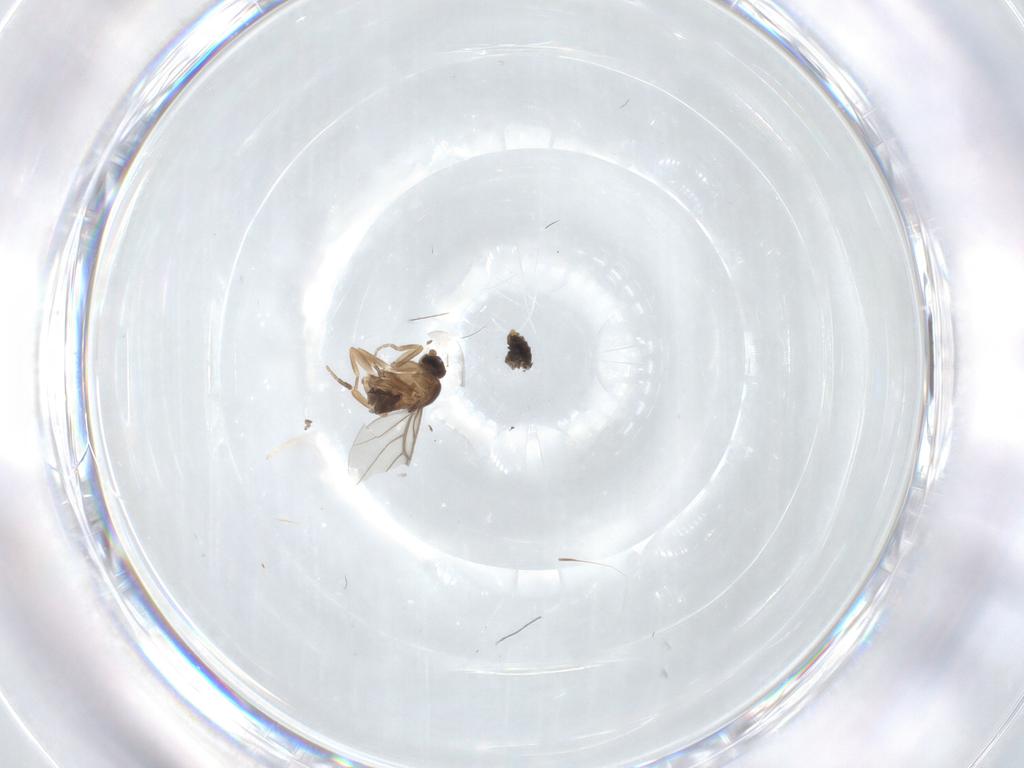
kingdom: Animalia
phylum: Arthropoda
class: Insecta
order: Diptera
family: Phoridae
